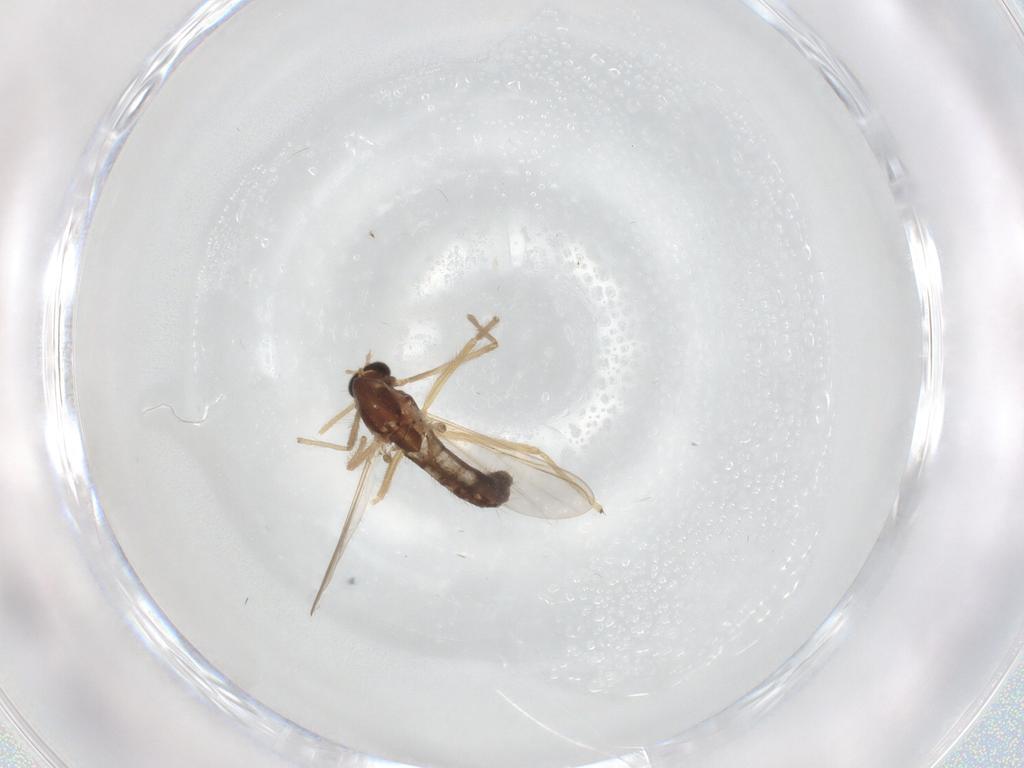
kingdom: Animalia
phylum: Arthropoda
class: Insecta
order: Diptera
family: Chironomidae
